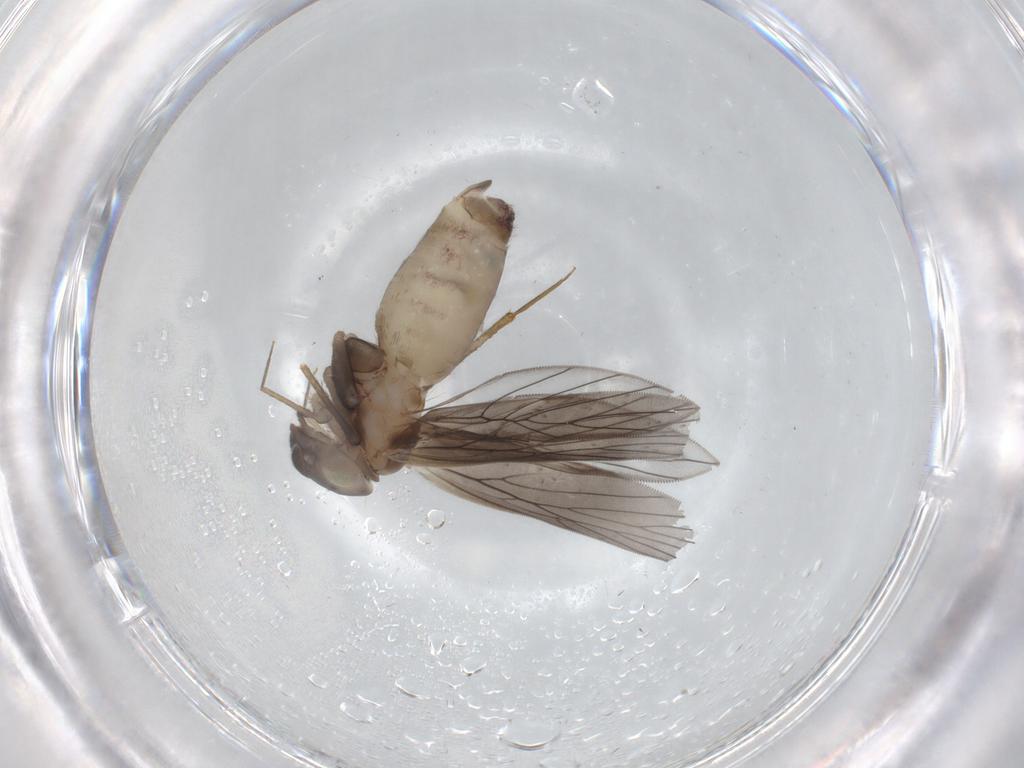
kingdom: Animalia
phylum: Arthropoda
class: Insecta
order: Psocodea
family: Lepidopsocidae
